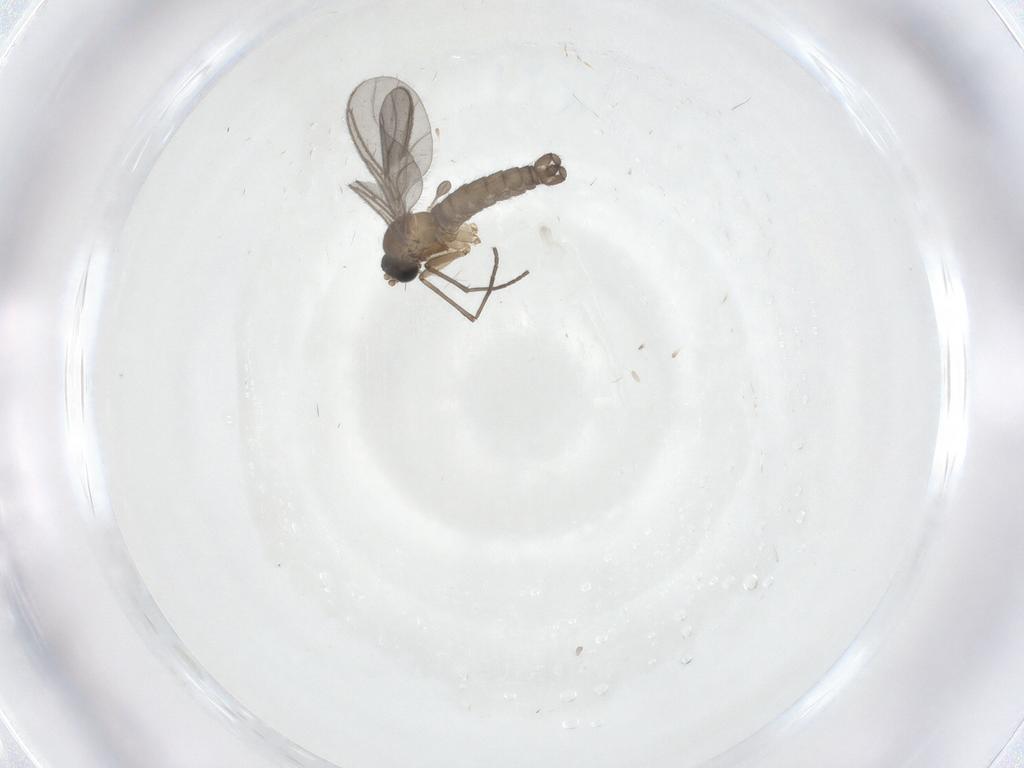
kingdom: Animalia
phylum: Arthropoda
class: Insecta
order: Diptera
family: Sciaridae
